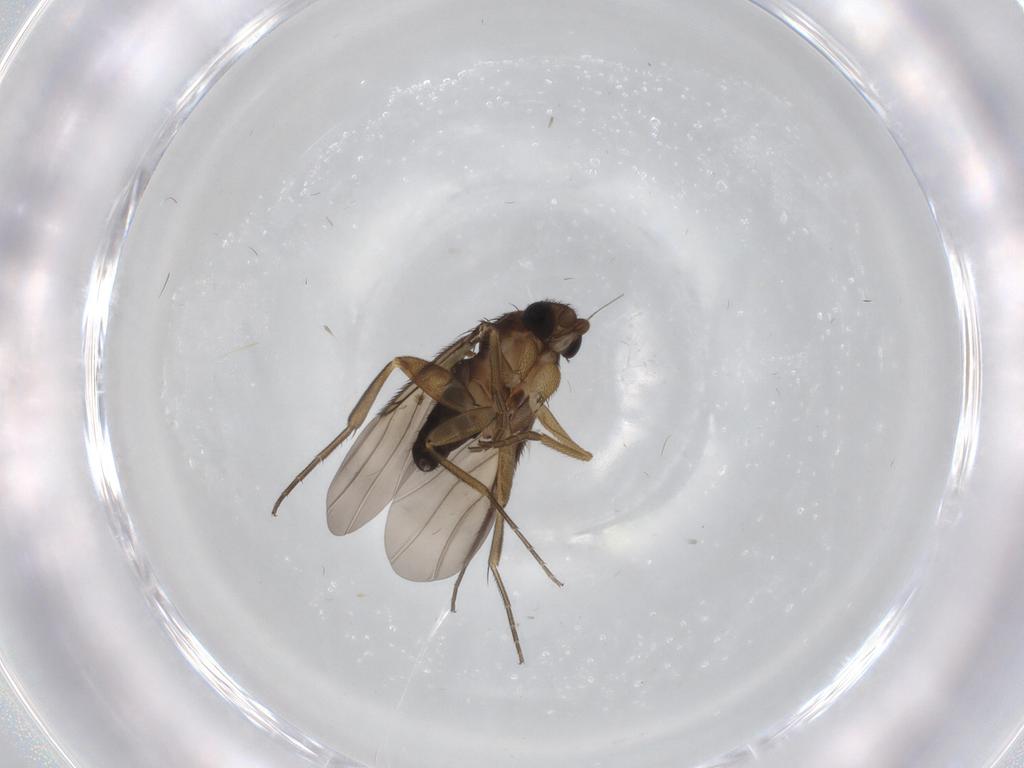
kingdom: Animalia
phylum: Arthropoda
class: Insecta
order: Diptera
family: Phoridae
